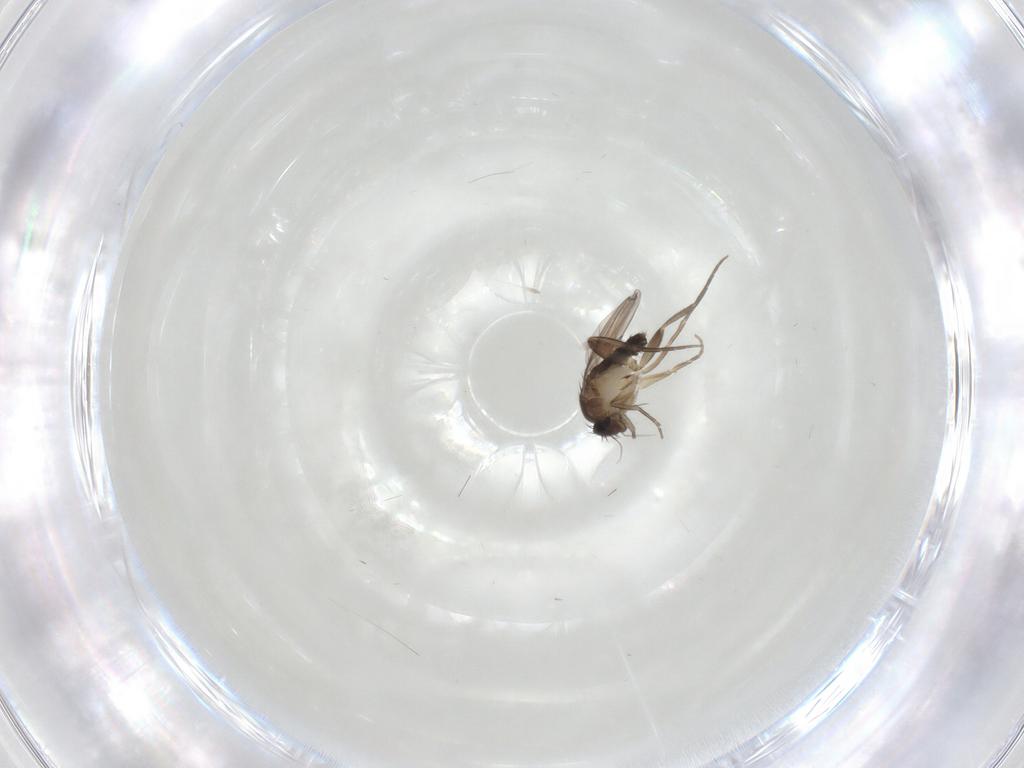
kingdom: Animalia
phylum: Arthropoda
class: Insecta
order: Diptera
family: Phoridae
